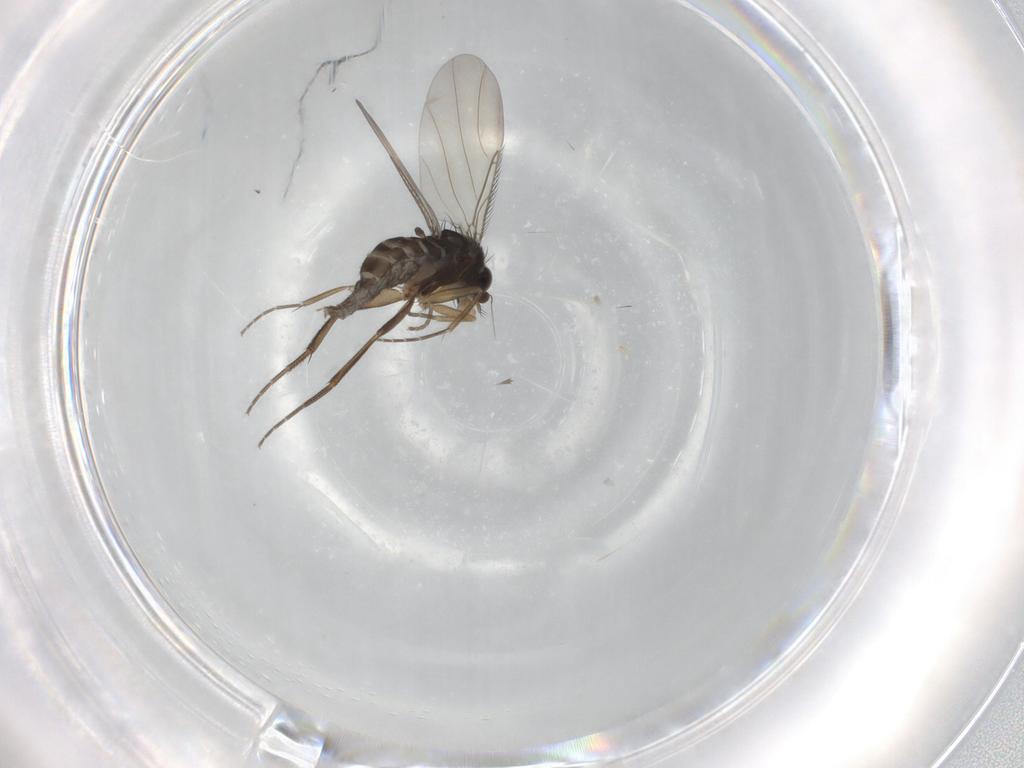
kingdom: Animalia
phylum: Arthropoda
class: Insecta
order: Diptera
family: Phoridae
